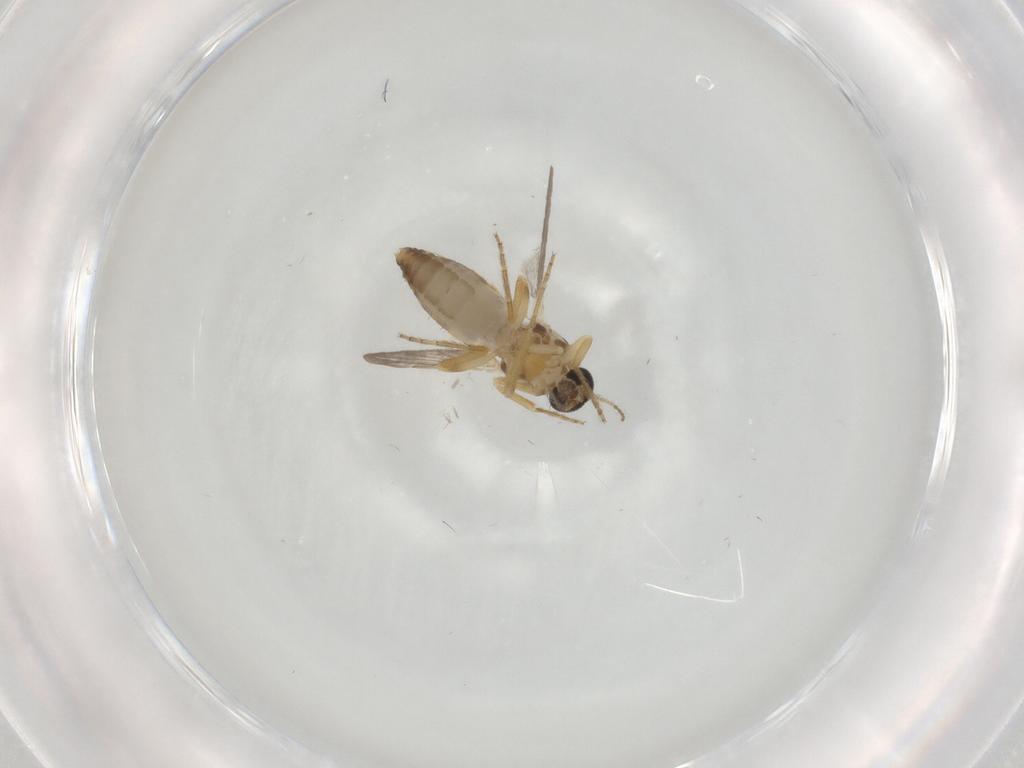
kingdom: Animalia
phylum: Arthropoda
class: Insecta
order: Diptera
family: Ceratopogonidae
